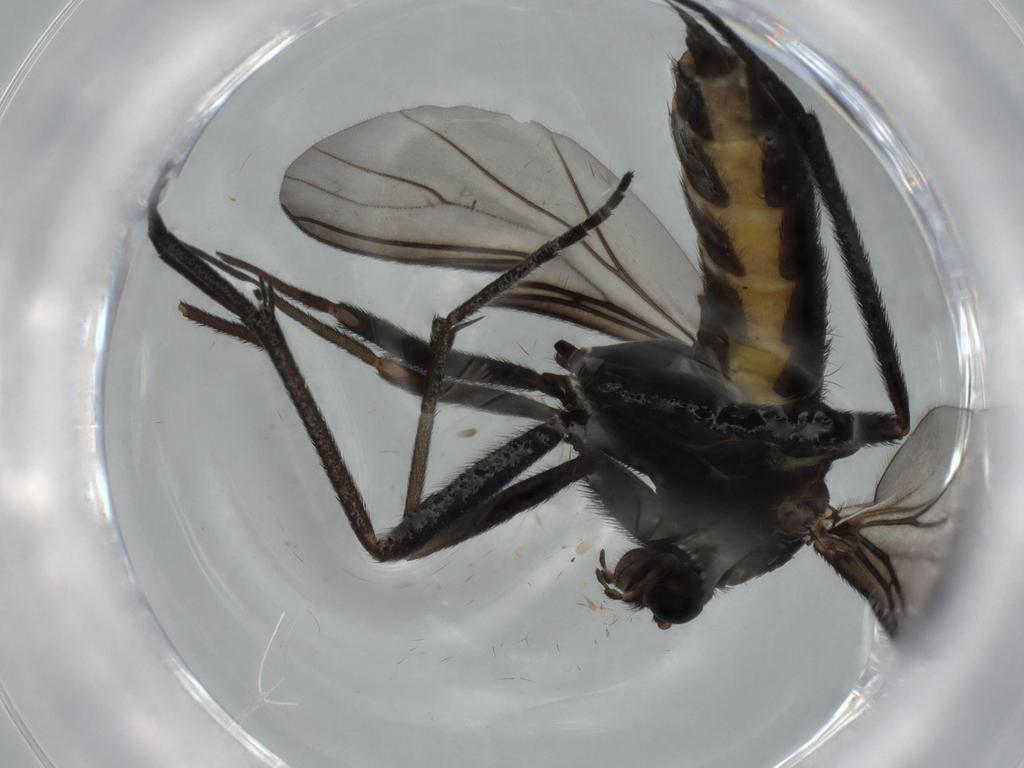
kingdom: Animalia
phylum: Arthropoda
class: Insecta
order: Diptera
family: Sciaridae
